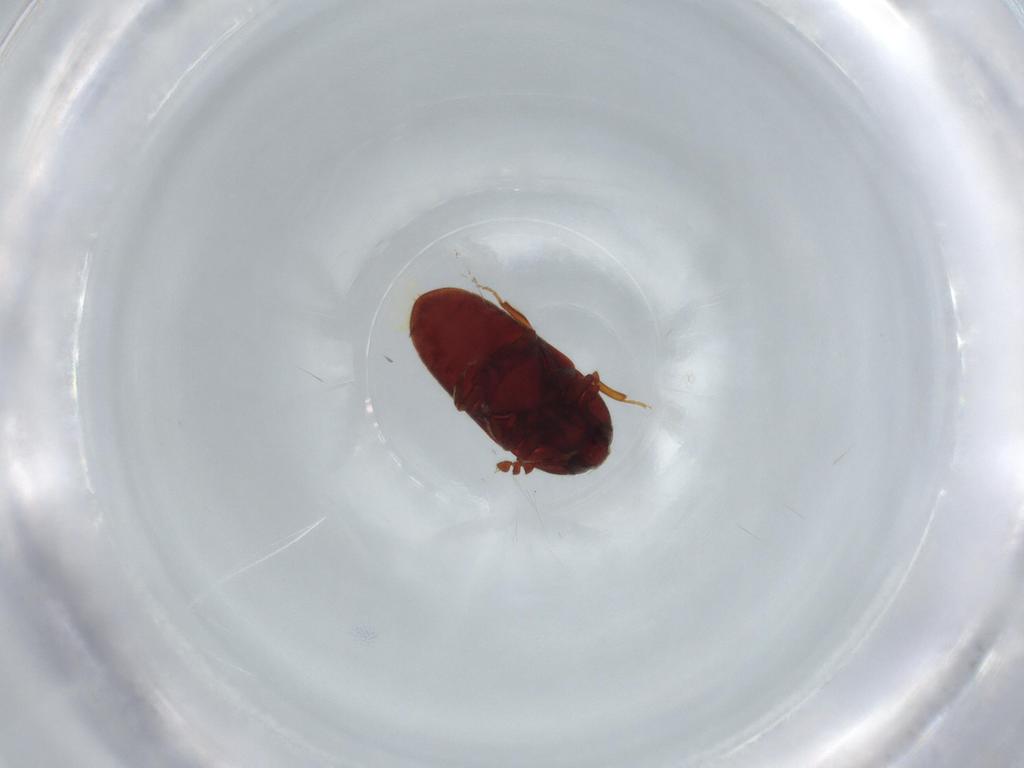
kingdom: Animalia
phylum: Arthropoda
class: Insecta
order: Coleoptera
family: Throscidae
